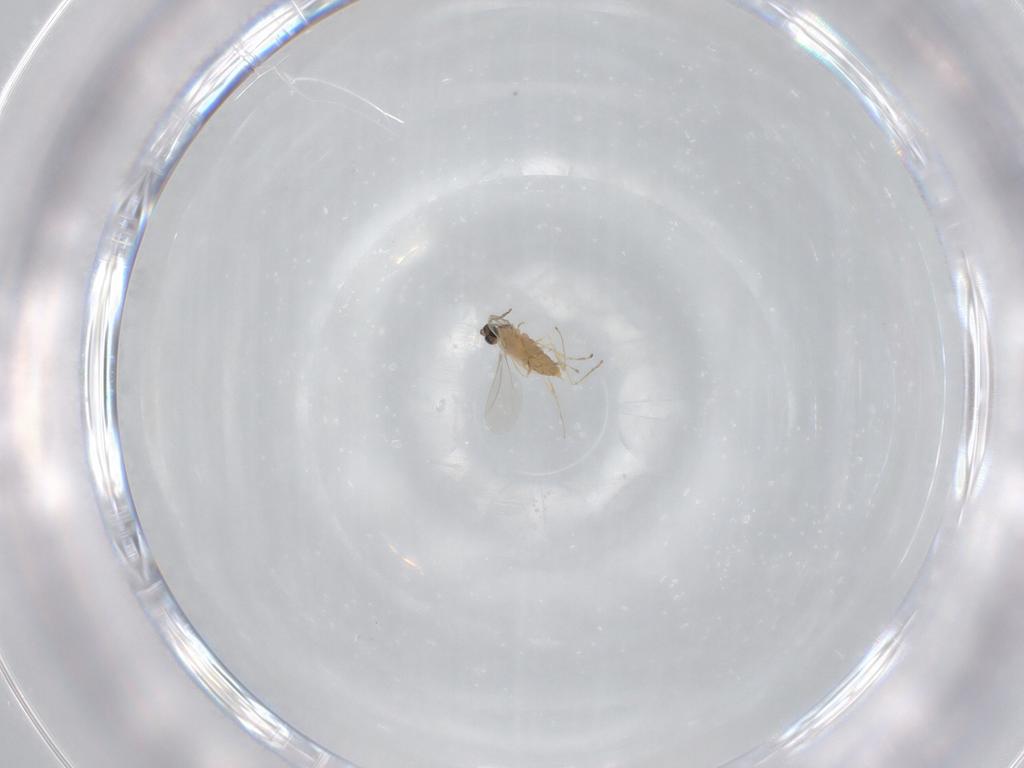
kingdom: Animalia
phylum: Arthropoda
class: Insecta
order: Diptera
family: Cecidomyiidae
